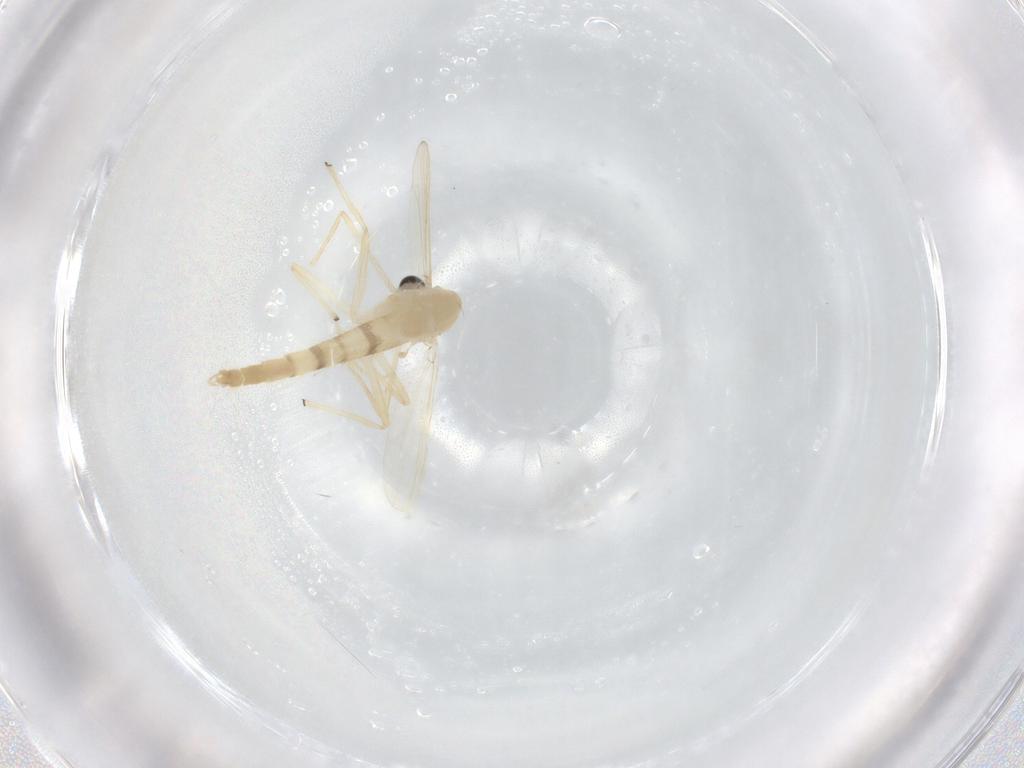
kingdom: Animalia
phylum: Arthropoda
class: Insecta
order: Diptera
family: Chironomidae
